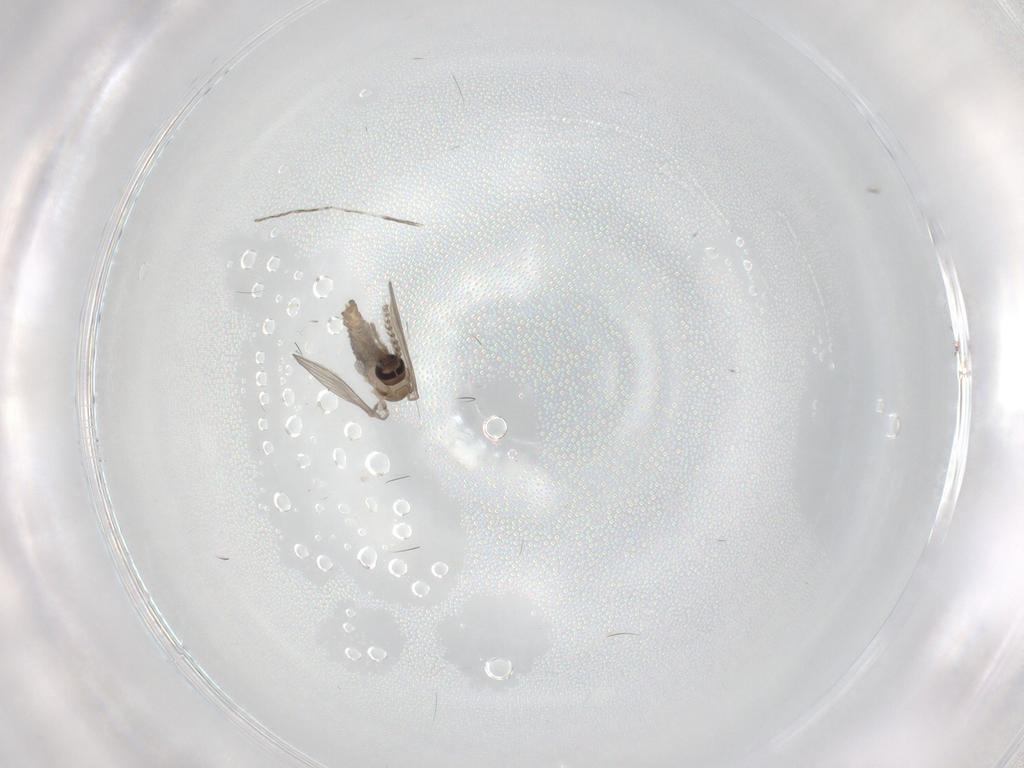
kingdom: Animalia
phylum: Arthropoda
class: Insecta
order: Diptera
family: Psychodidae
